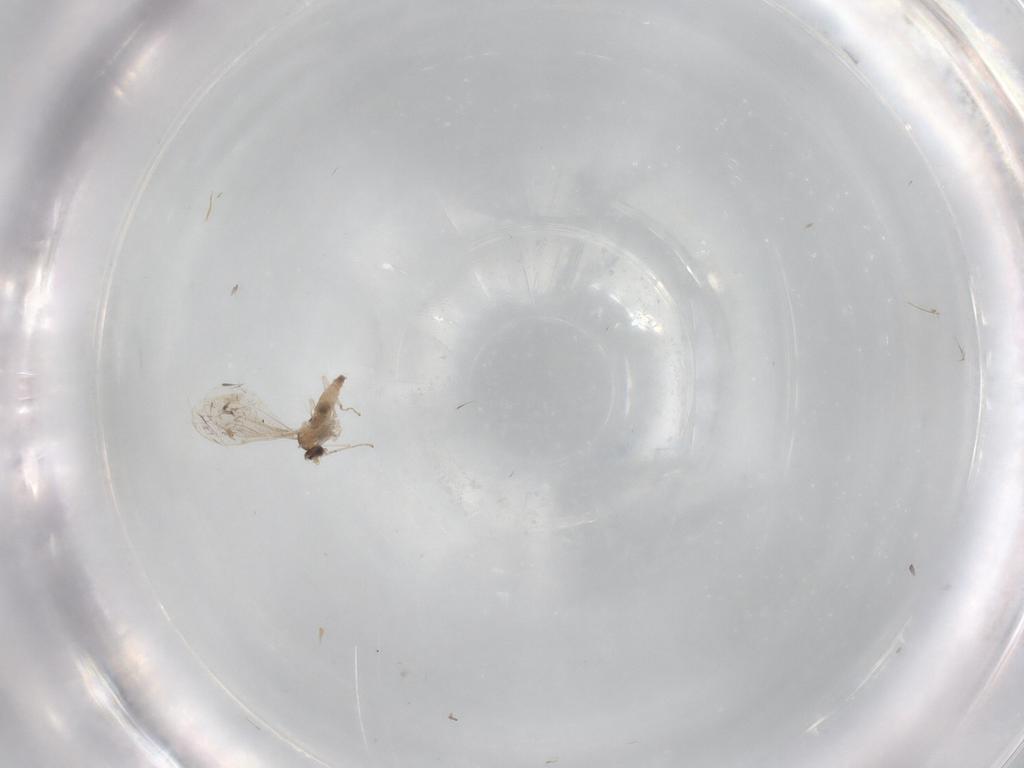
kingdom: Animalia
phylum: Arthropoda
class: Insecta
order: Diptera
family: Cecidomyiidae
